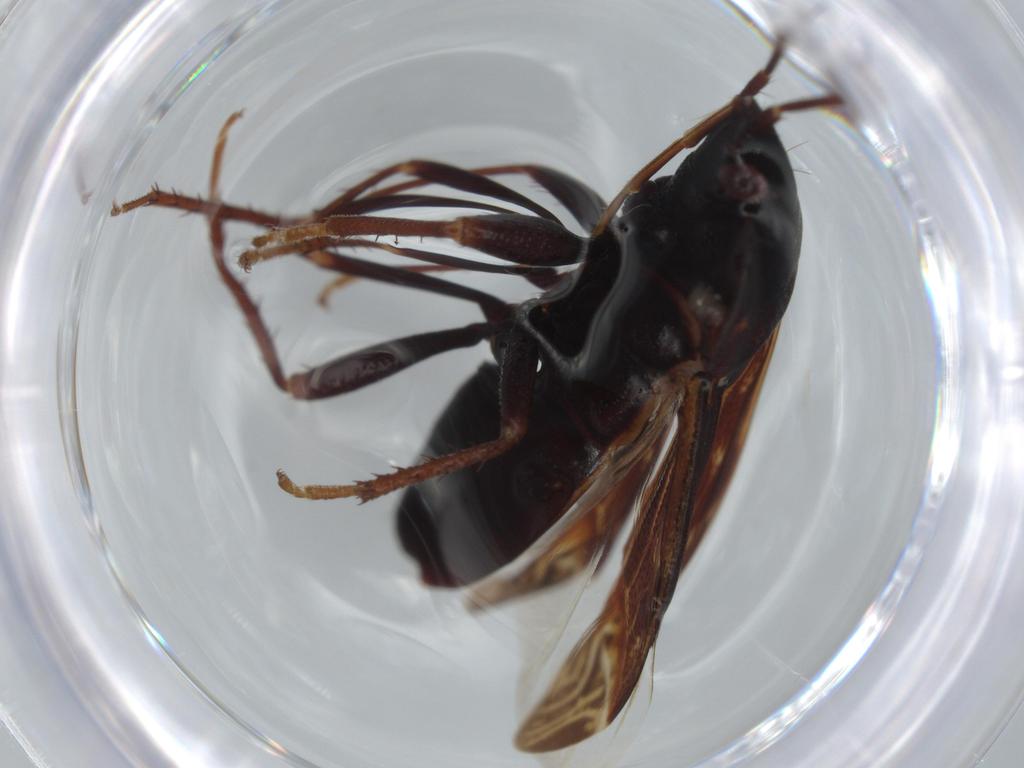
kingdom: Animalia
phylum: Arthropoda
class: Insecta
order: Hemiptera
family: Rhyparochromidae
